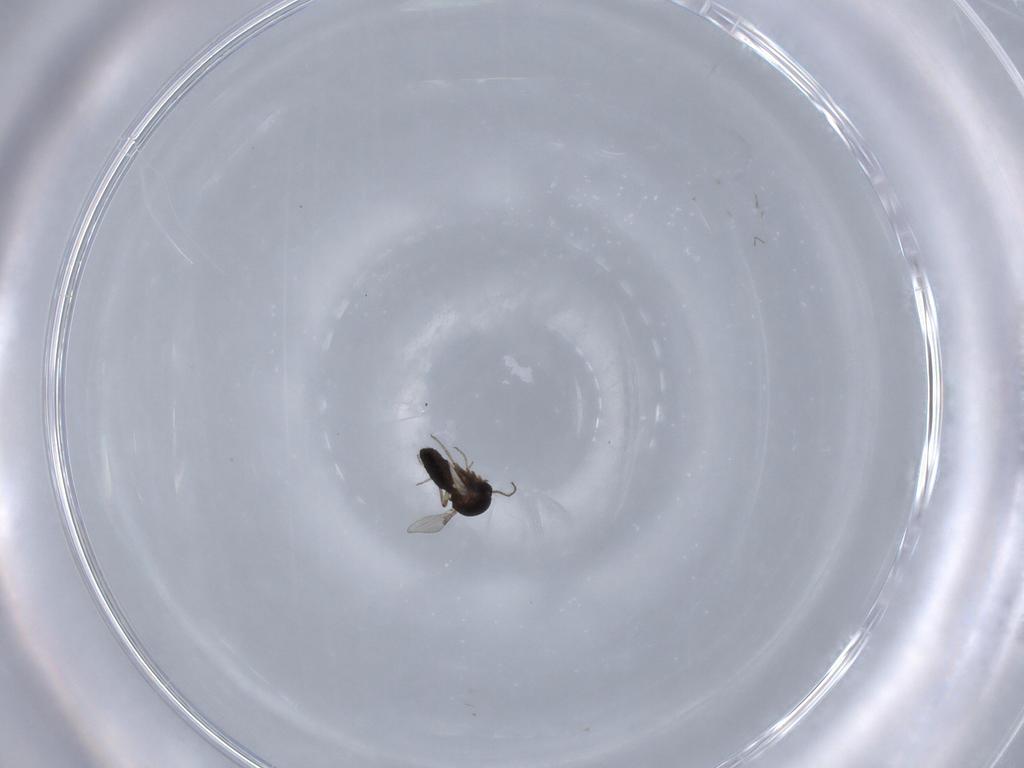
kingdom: Animalia
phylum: Arthropoda
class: Insecta
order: Diptera
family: Ceratopogonidae
